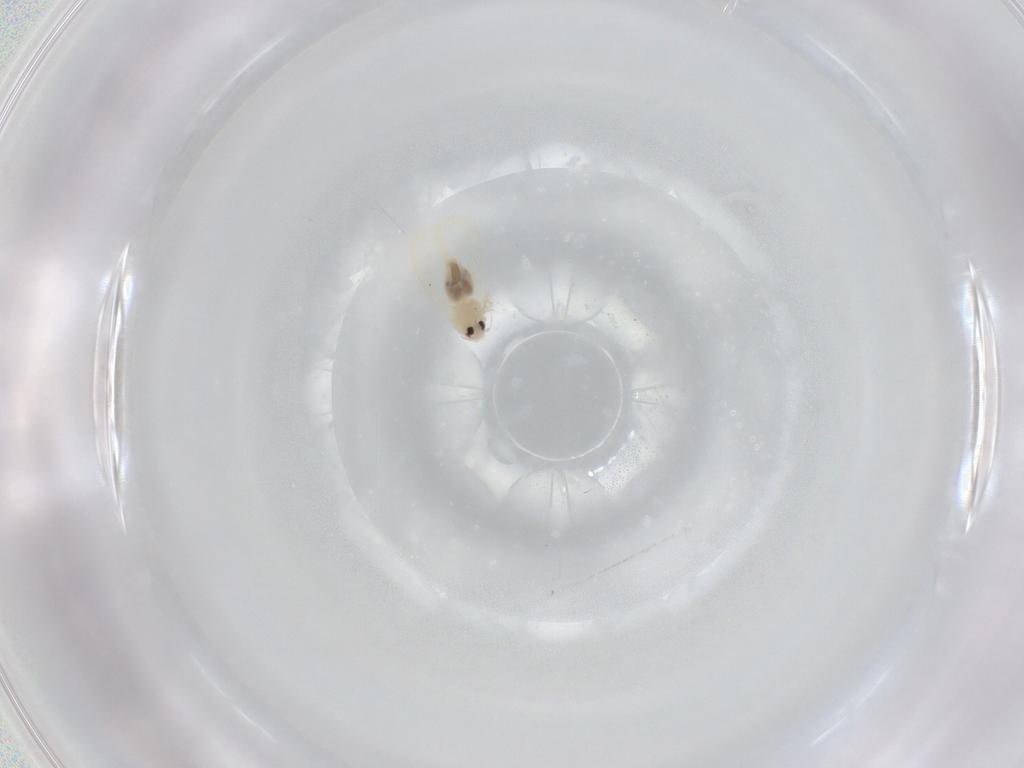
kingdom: Animalia
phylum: Arthropoda
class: Insecta
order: Hemiptera
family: Aleyrodidae
